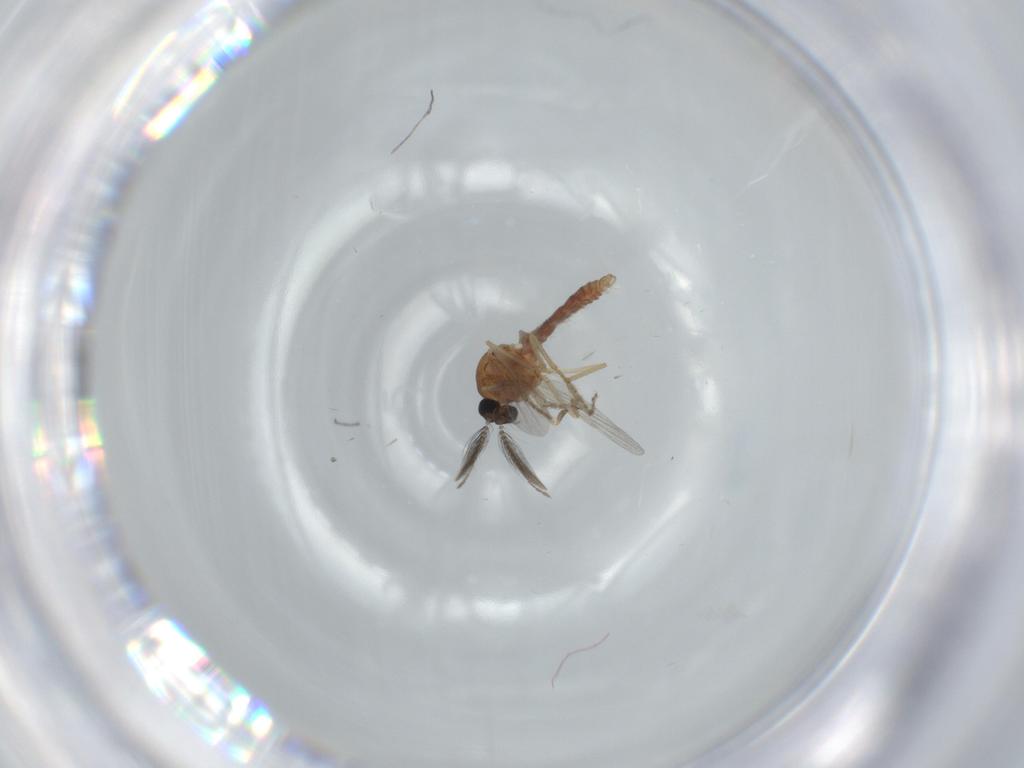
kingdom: Animalia
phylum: Arthropoda
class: Insecta
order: Diptera
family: Ceratopogonidae
